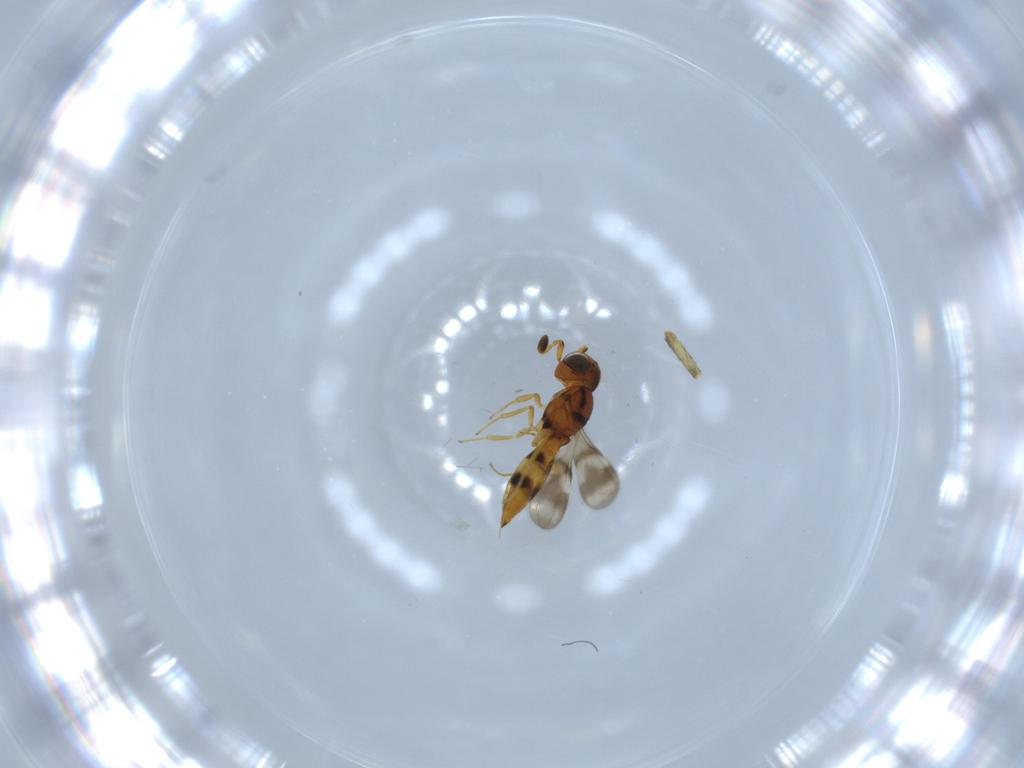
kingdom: Animalia
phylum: Arthropoda
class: Insecta
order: Hymenoptera
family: Scelionidae
